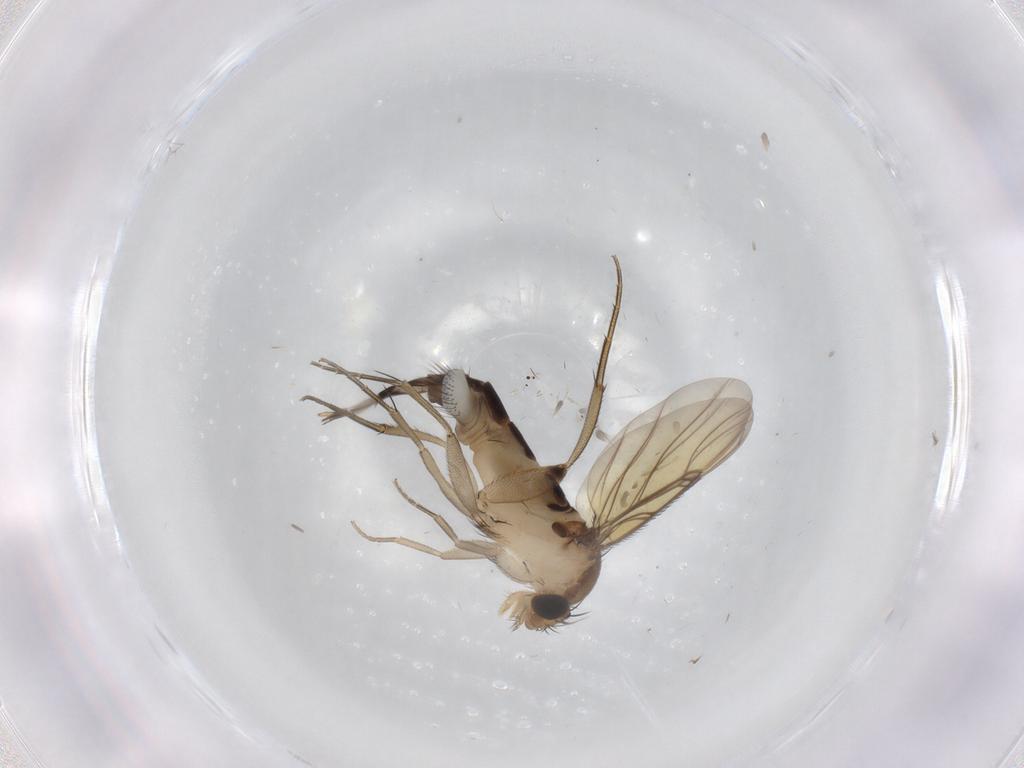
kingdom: Animalia
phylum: Arthropoda
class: Insecta
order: Diptera
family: Phoridae
